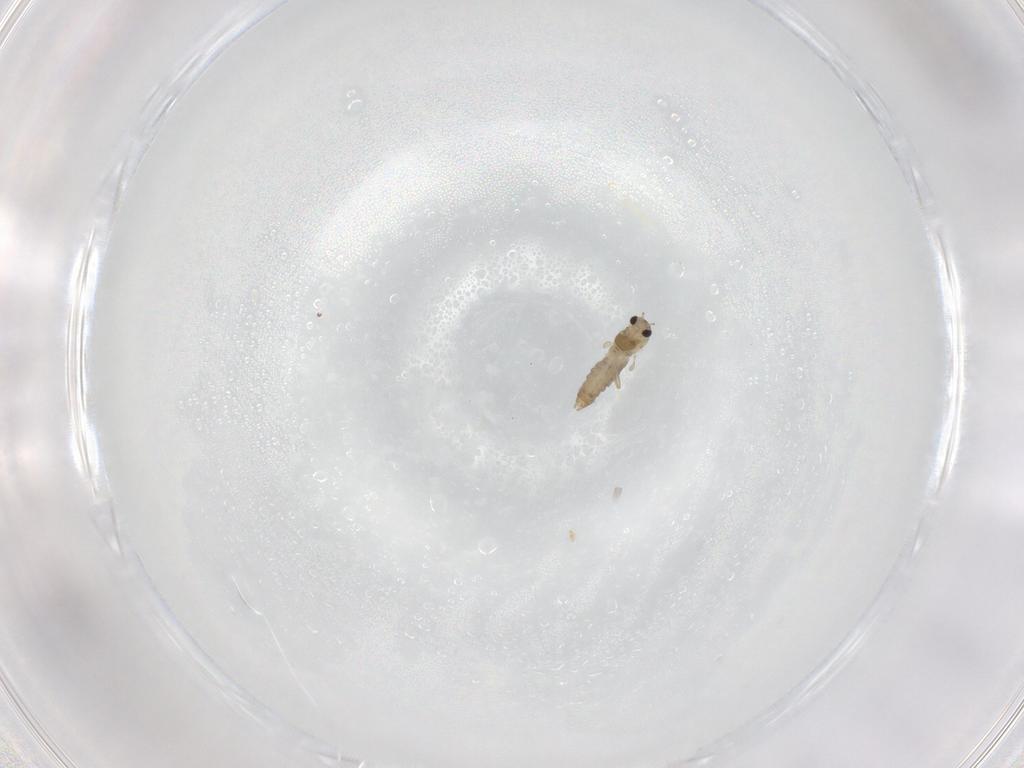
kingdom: Animalia
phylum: Arthropoda
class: Insecta
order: Diptera
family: Chironomidae
